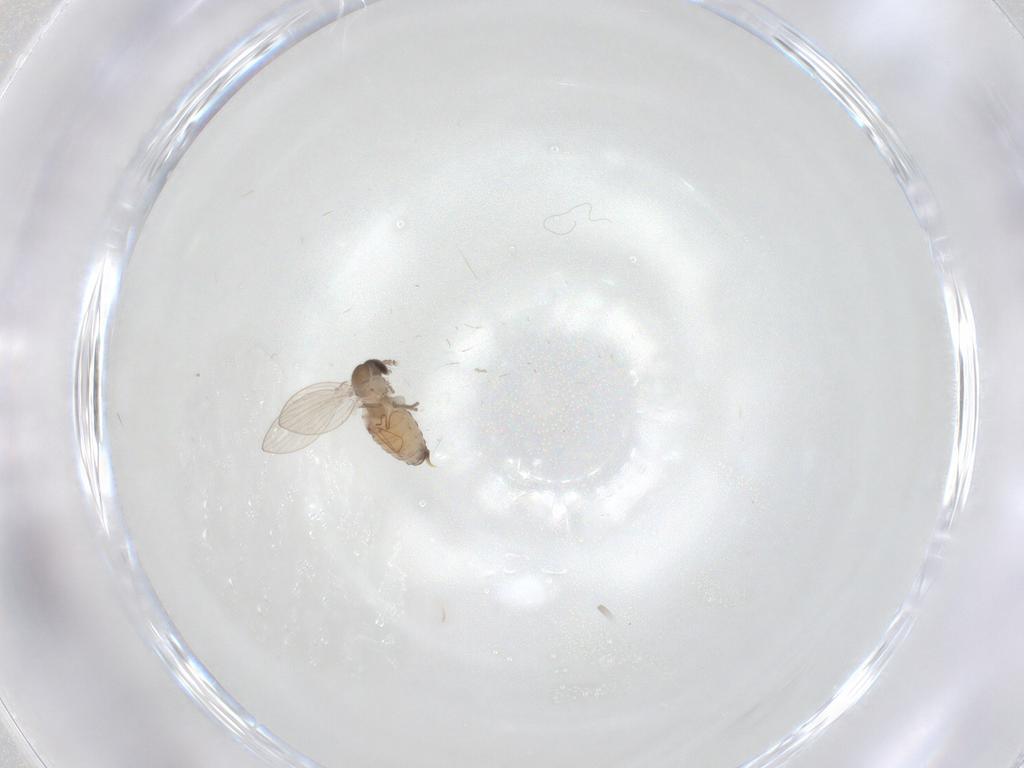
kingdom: Animalia
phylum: Arthropoda
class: Insecta
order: Diptera
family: Psychodidae
